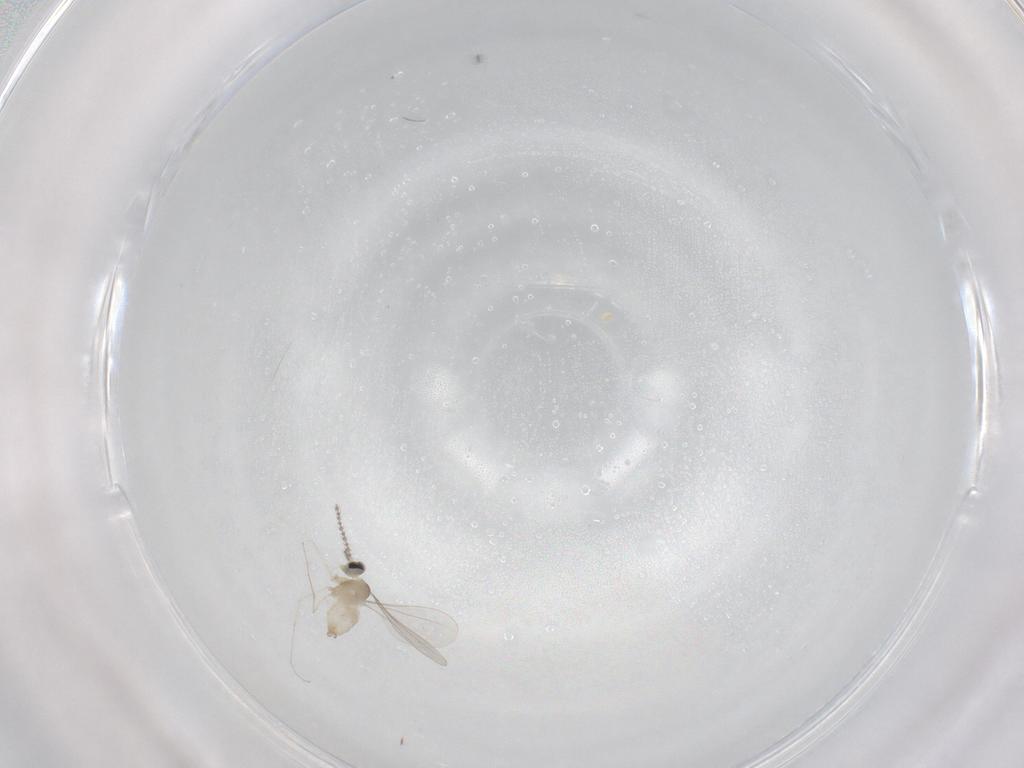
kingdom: Animalia
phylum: Arthropoda
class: Insecta
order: Diptera
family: Cecidomyiidae
